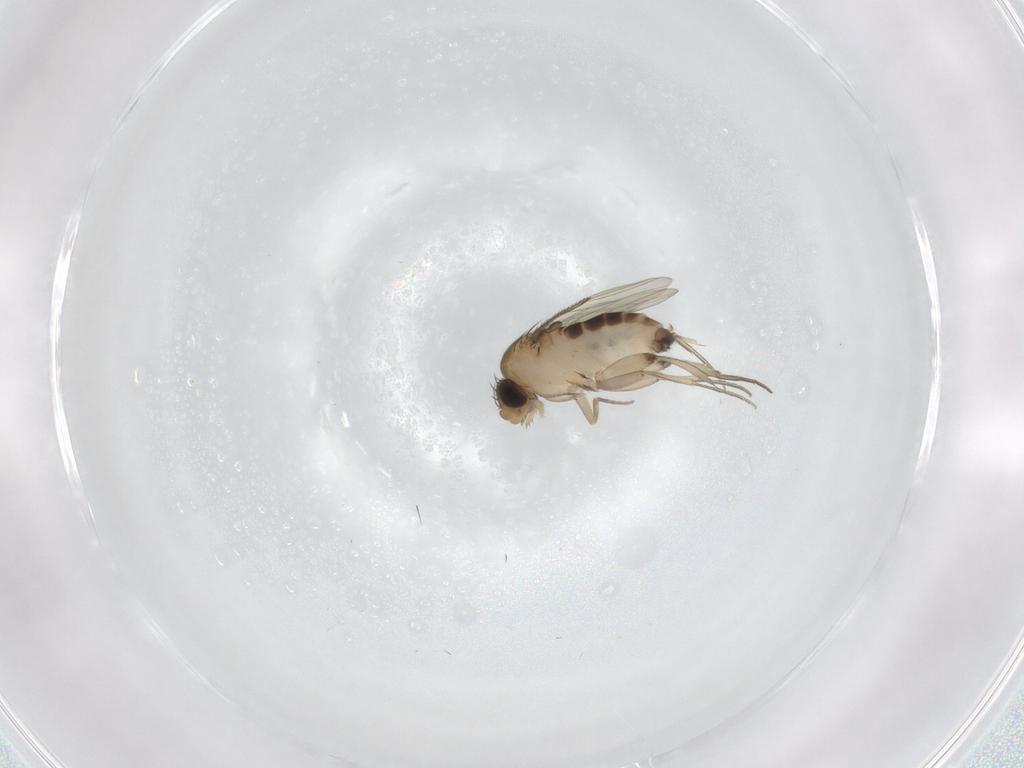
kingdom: Animalia
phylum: Arthropoda
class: Insecta
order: Diptera
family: Phoridae
